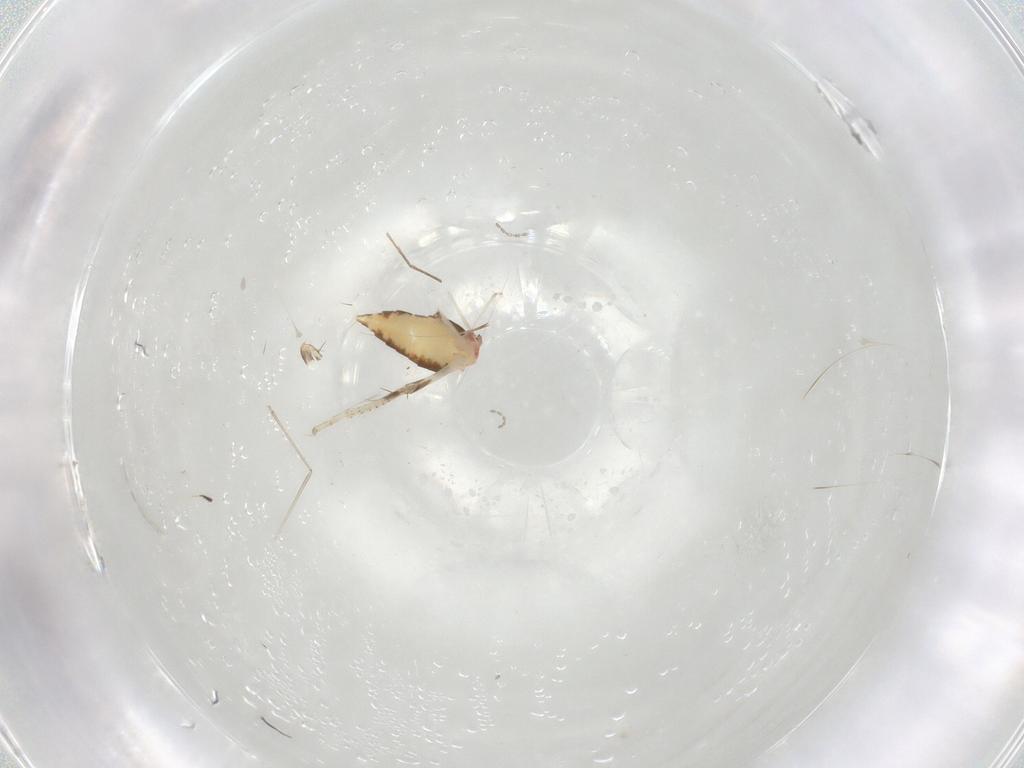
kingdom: Animalia
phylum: Arthropoda
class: Insecta
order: Hemiptera
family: Cicadellidae
